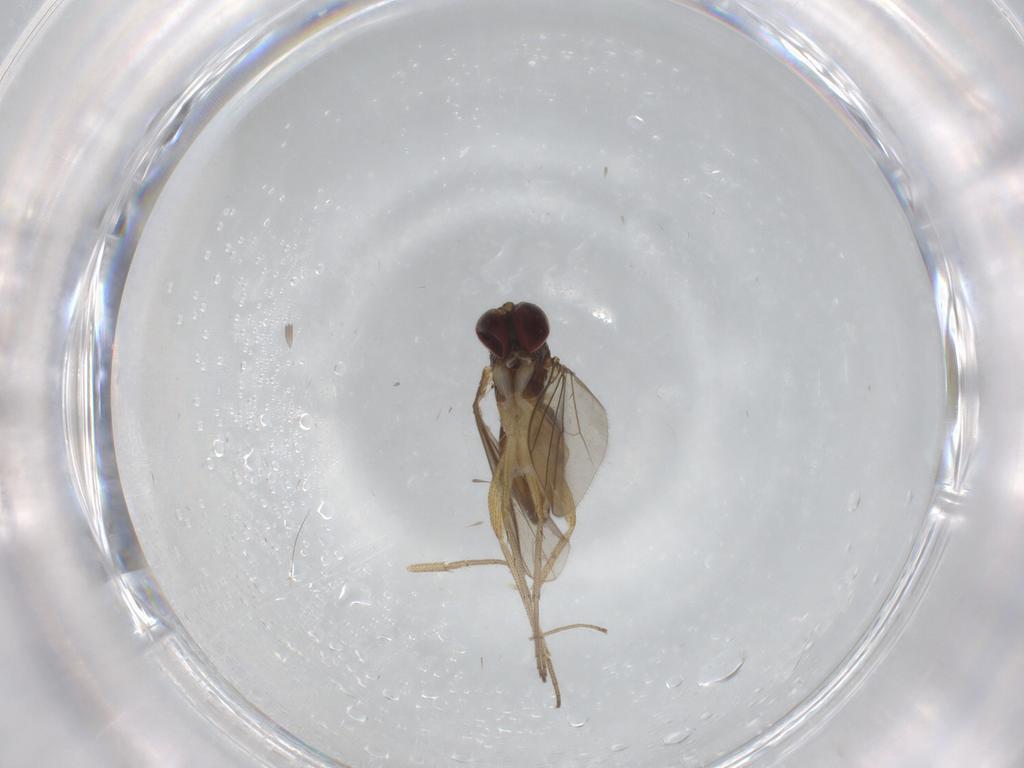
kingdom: Animalia
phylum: Arthropoda
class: Insecta
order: Diptera
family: Dolichopodidae
